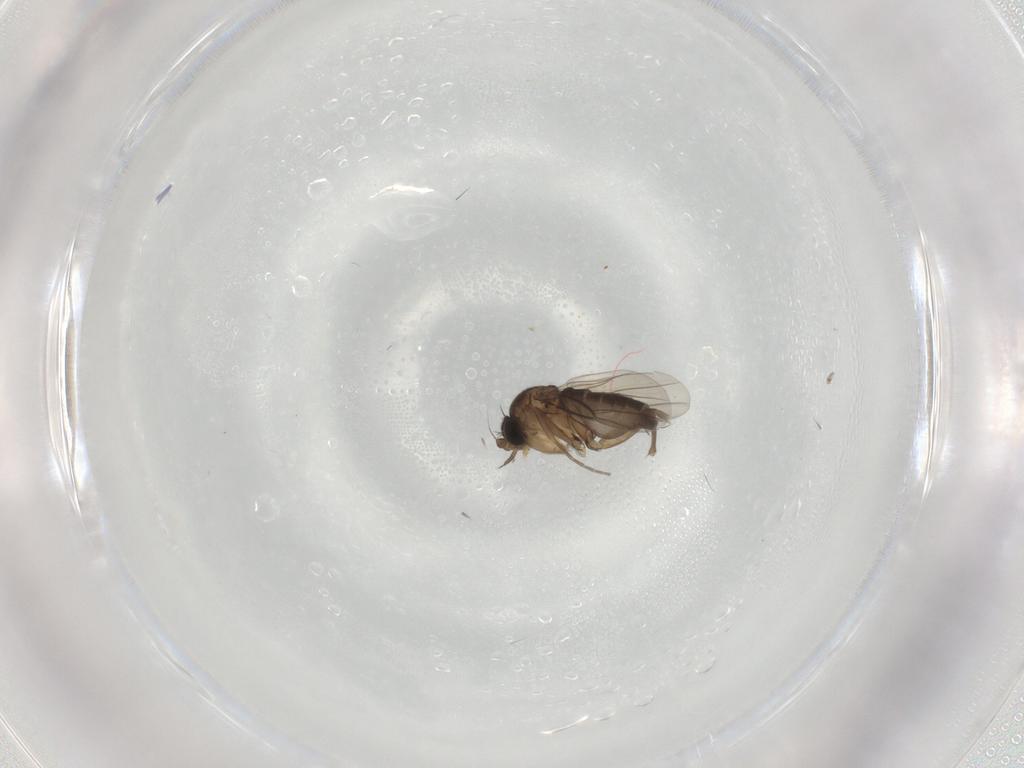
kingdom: Animalia
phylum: Arthropoda
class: Insecta
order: Diptera
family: Phoridae
